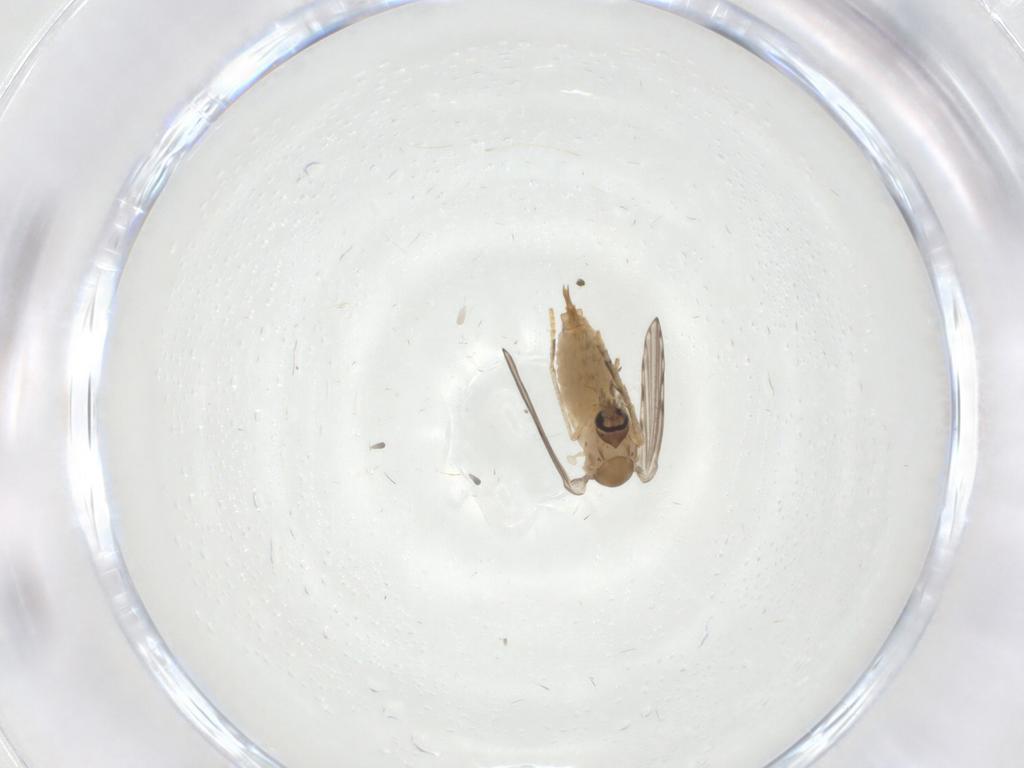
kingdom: Animalia
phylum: Arthropoda
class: Insecta
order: Diptera
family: Psychodidae
